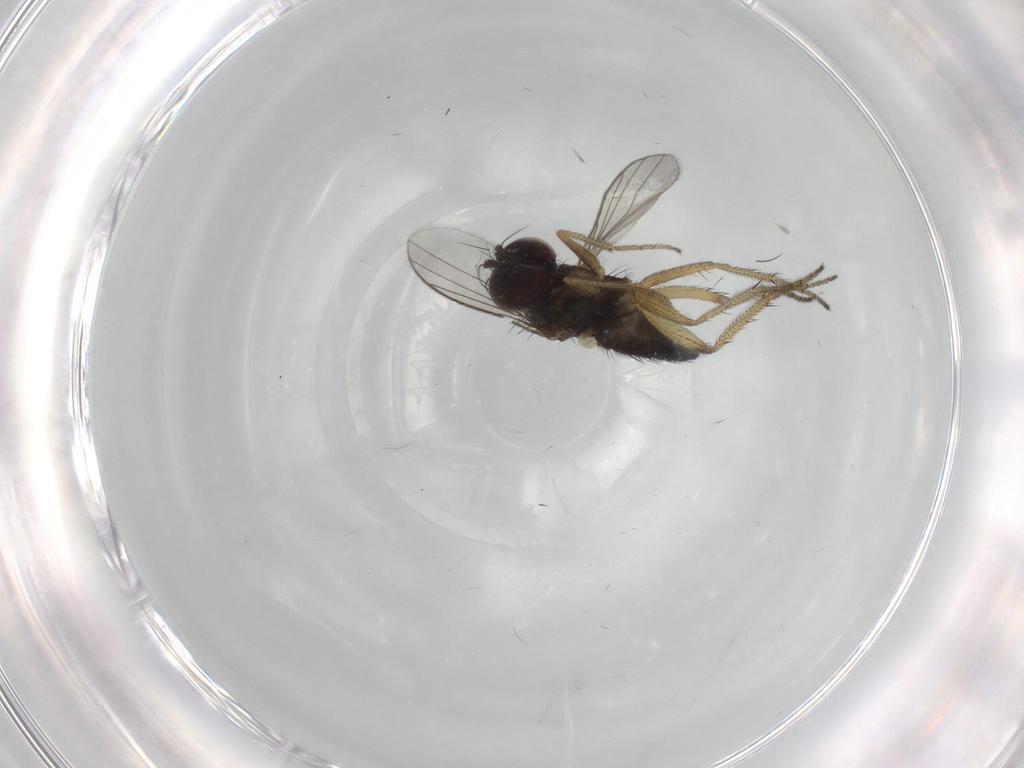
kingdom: Animalia
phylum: Arthropoda
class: Insecta
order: Diptera
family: Dolichopodidae
